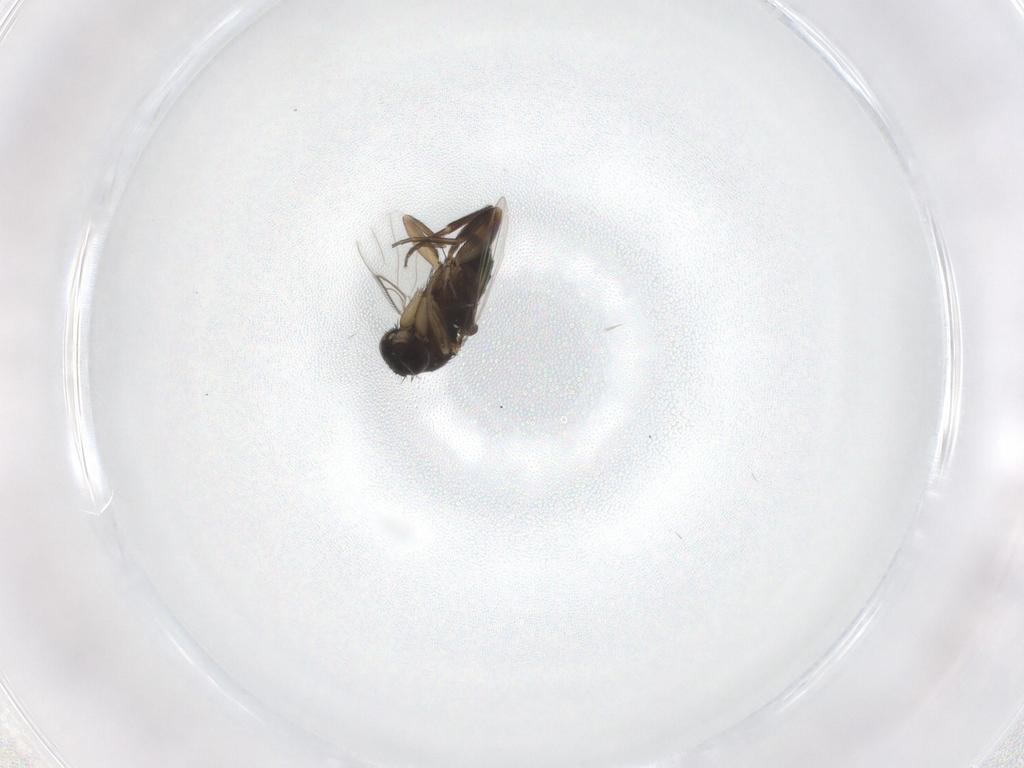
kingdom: Animalia
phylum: Arthropoda
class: Insecta
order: Diptera
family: Phoridae
